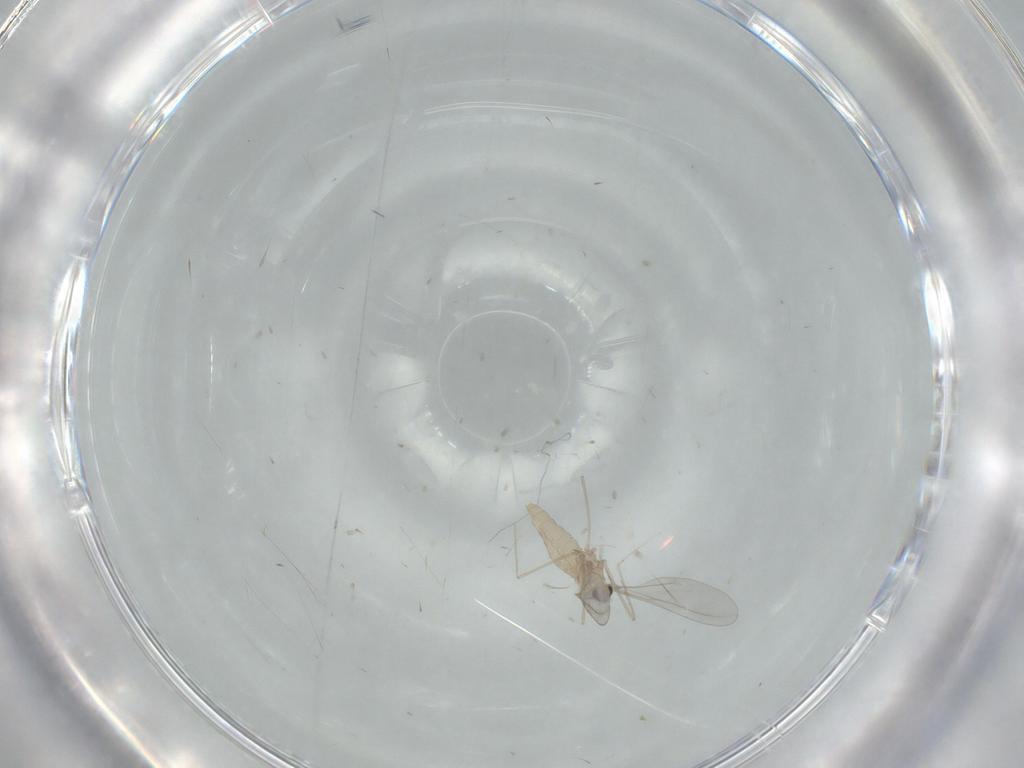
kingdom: Animalia
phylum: Arthropoda
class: Insecta
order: Diptera
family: Cecidomyiidae
